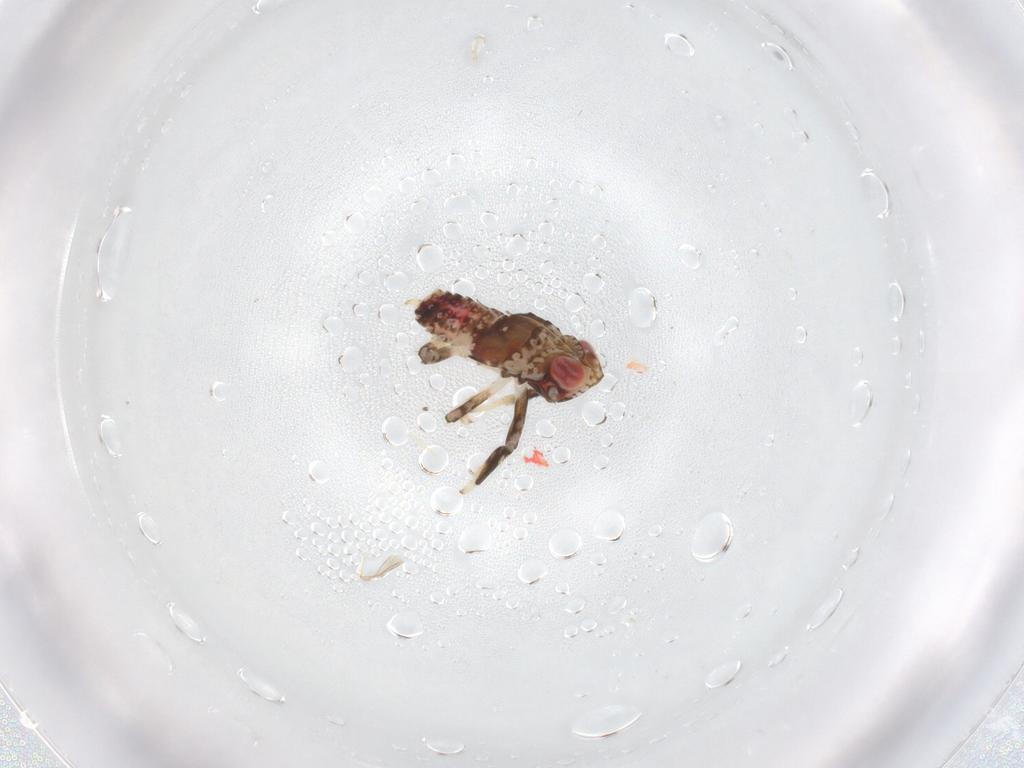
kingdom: Animalia
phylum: Arthropoda
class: Insecta
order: Hemiptera
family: Issidae
